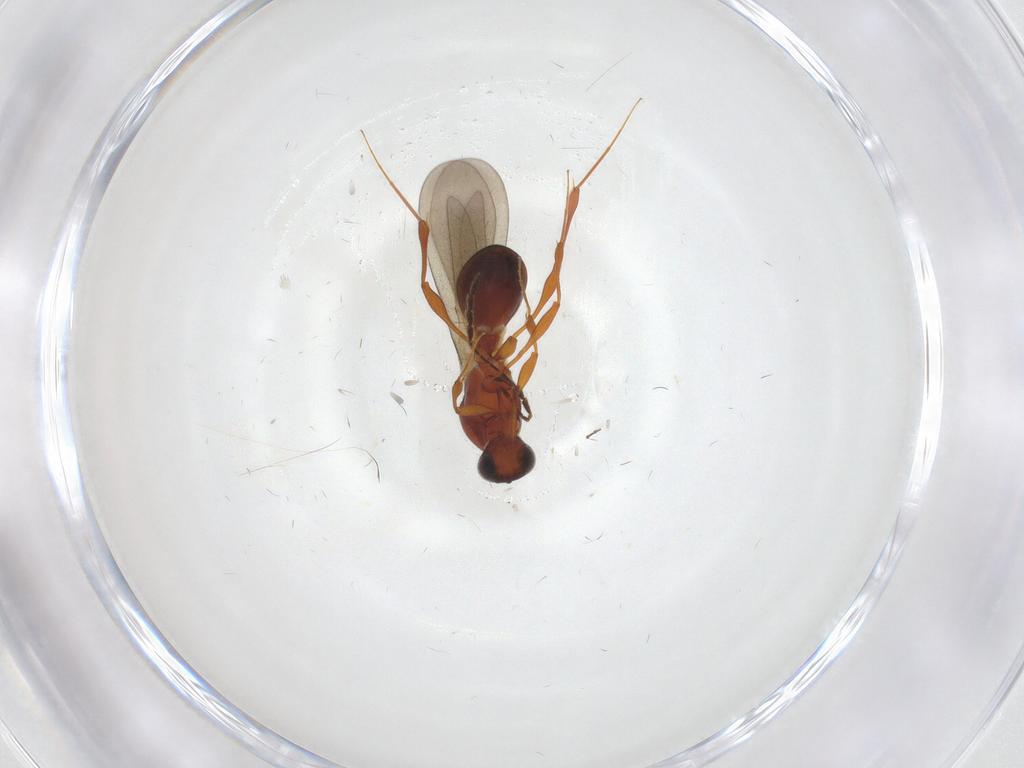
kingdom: Animalia
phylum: Arthropoda
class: Insecta
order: Hymenoptera
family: Platygastridae
